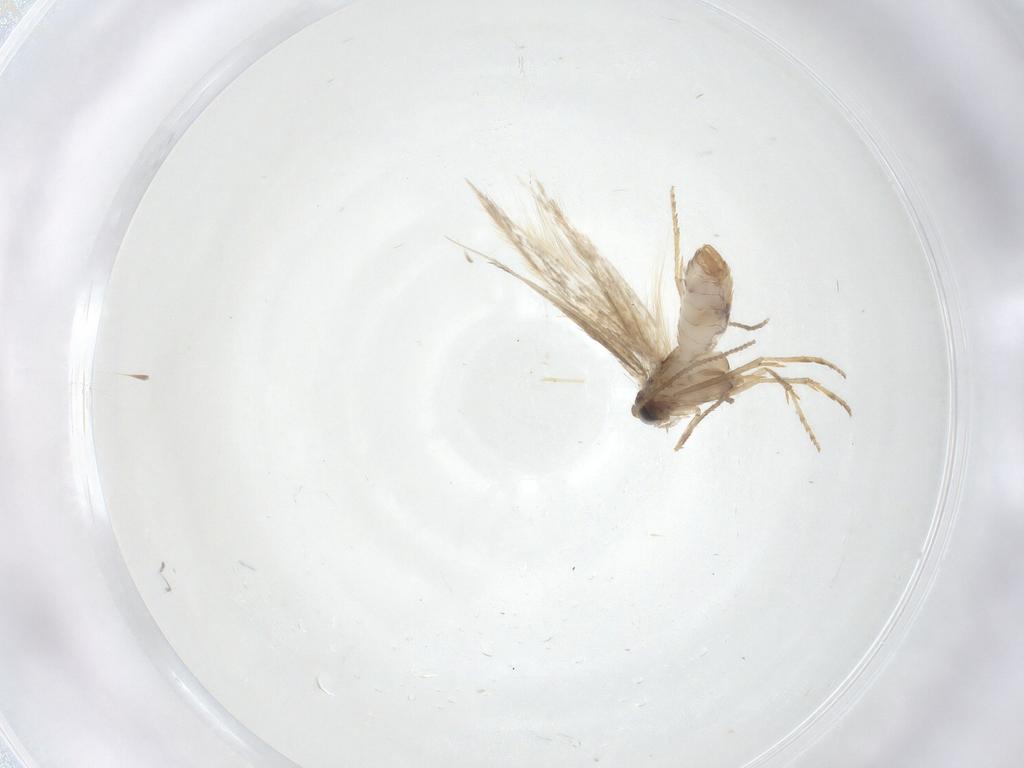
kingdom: Animalia
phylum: Arthropoda
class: Insecta
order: Lepidoptera
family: Nepticulidae
